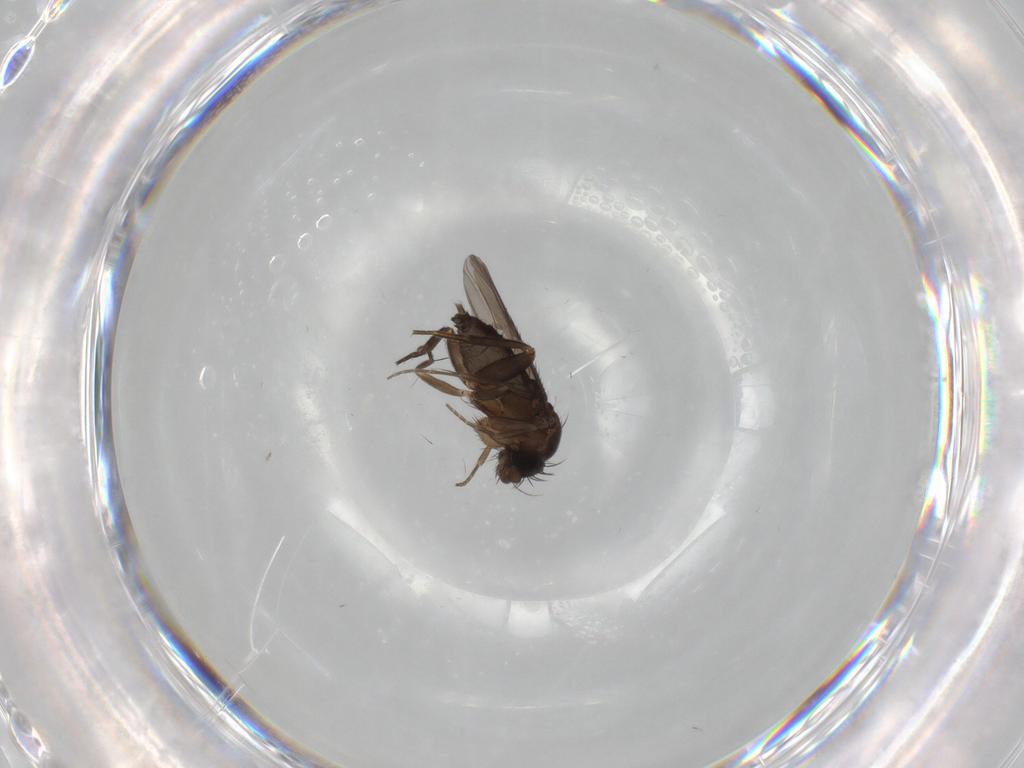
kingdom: Animalia
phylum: Arthropoda
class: Insecta
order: Diptera
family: Phoridae
